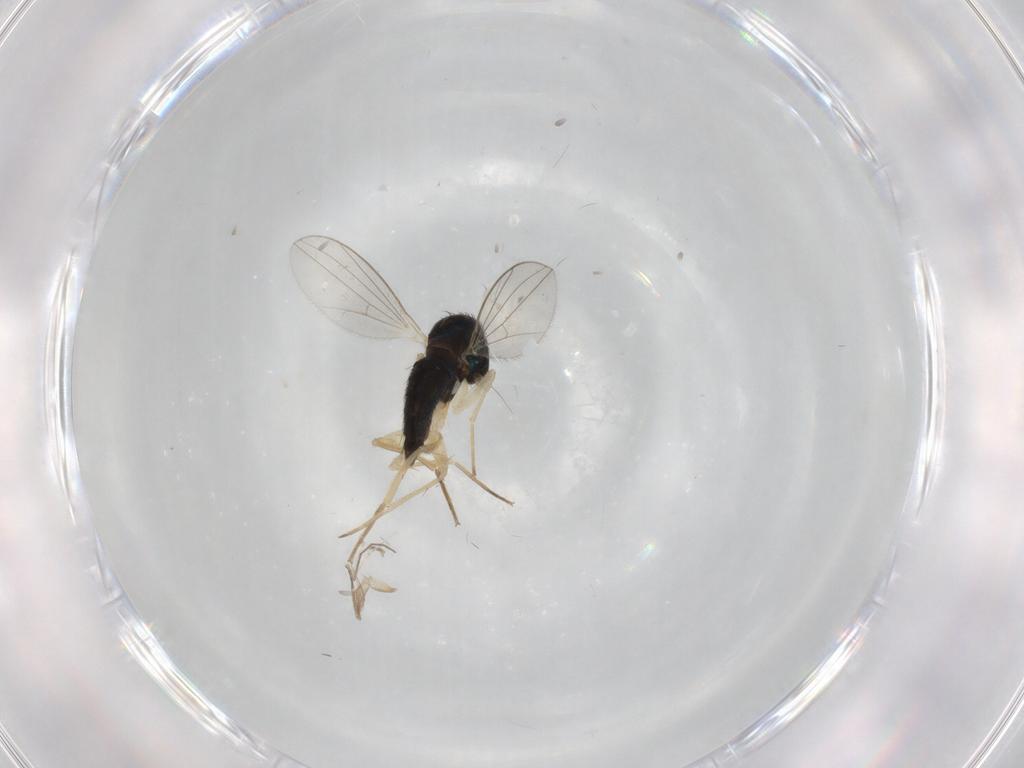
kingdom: Animalia
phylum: Arthropoda
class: Insecta
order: Diptera
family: Dolichopodidae
